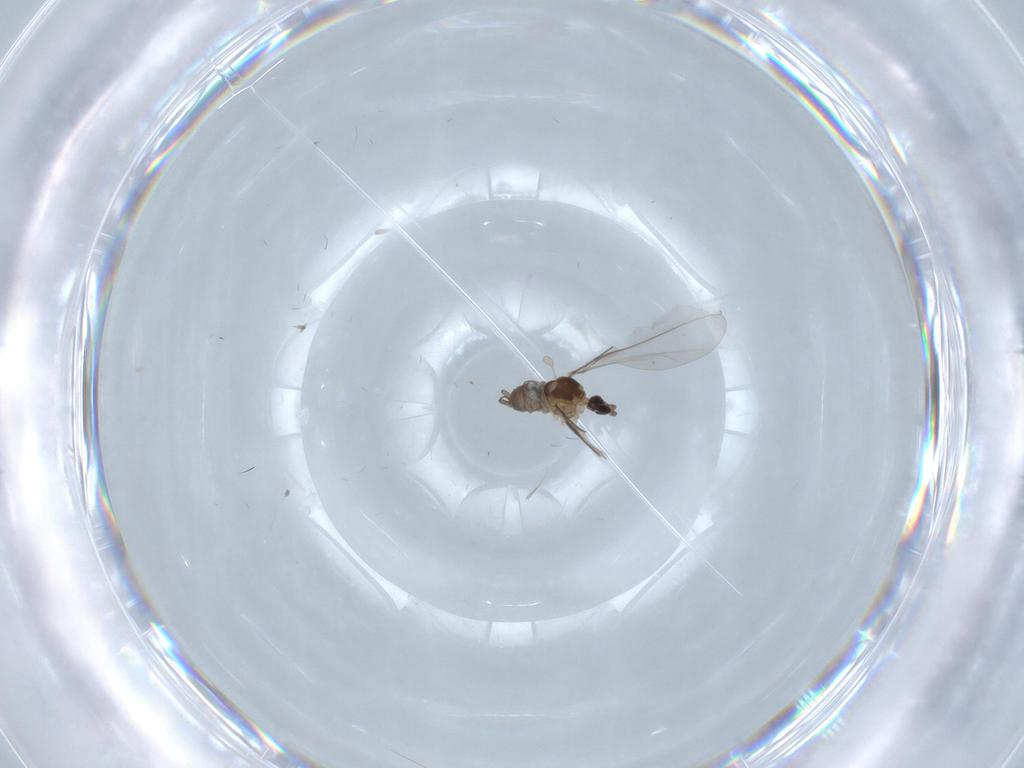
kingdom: Animalia
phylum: Arthropoda
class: Insecta
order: Diptera
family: Cecidomyiidae
